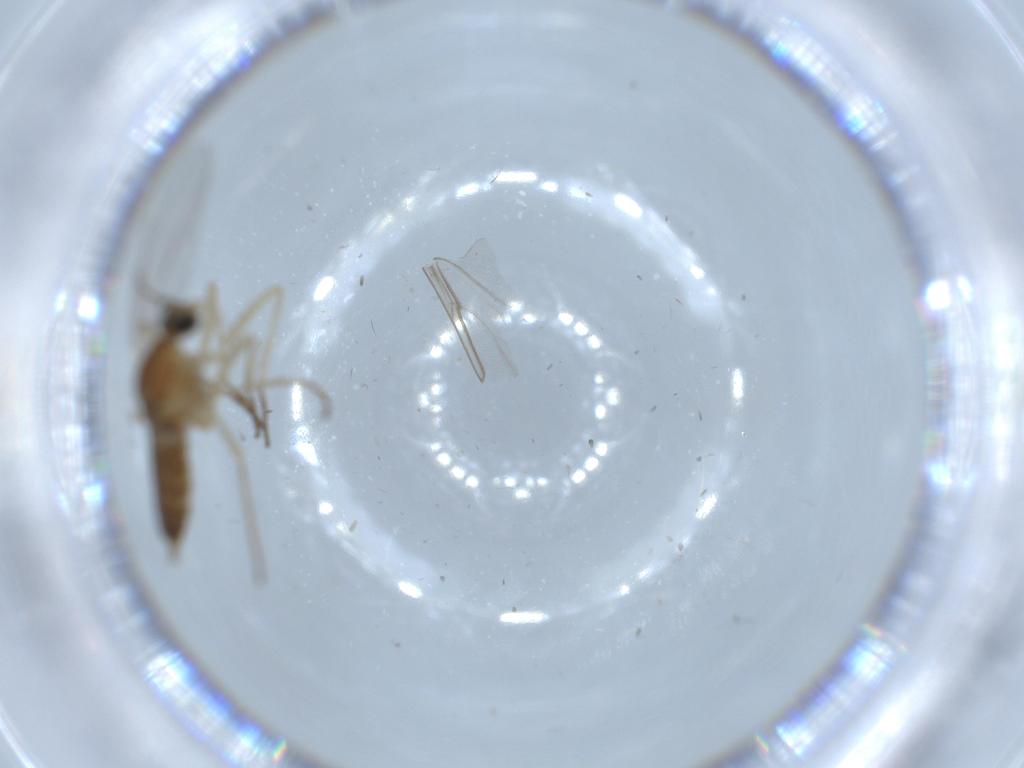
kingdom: Animalia
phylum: Arthropoda
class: Insecta
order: Diptera
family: Cecidomyiidae
